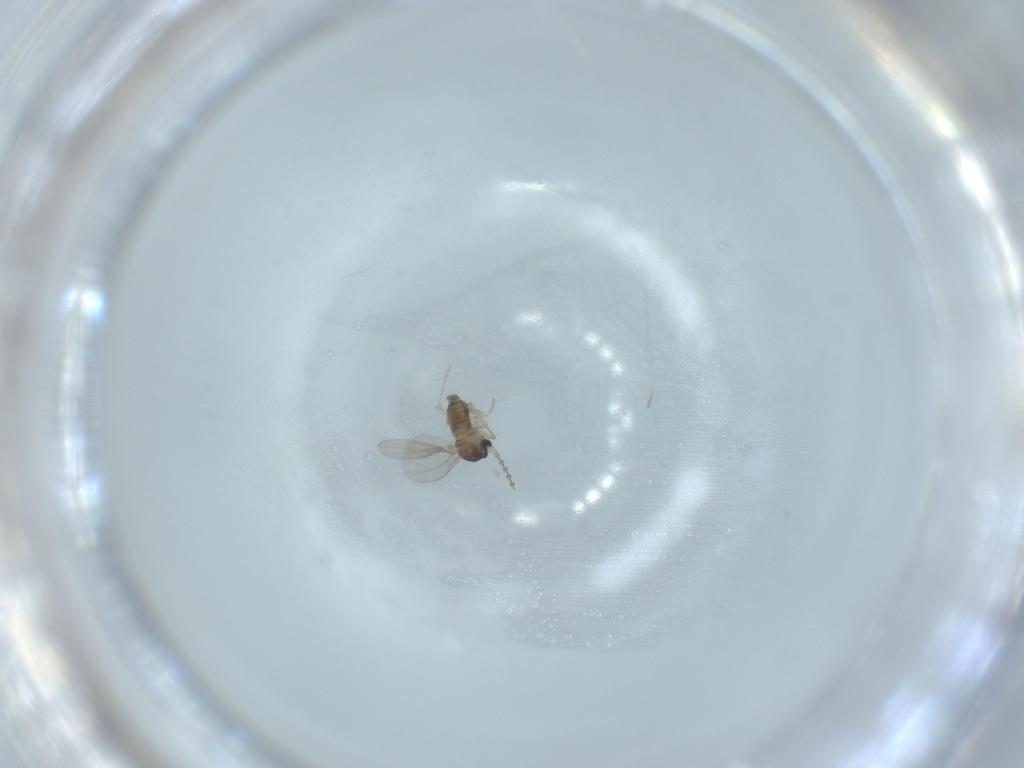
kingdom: Animalia
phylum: Arthropoda
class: Insecta
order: Diptera
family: Cecidomyiidae
